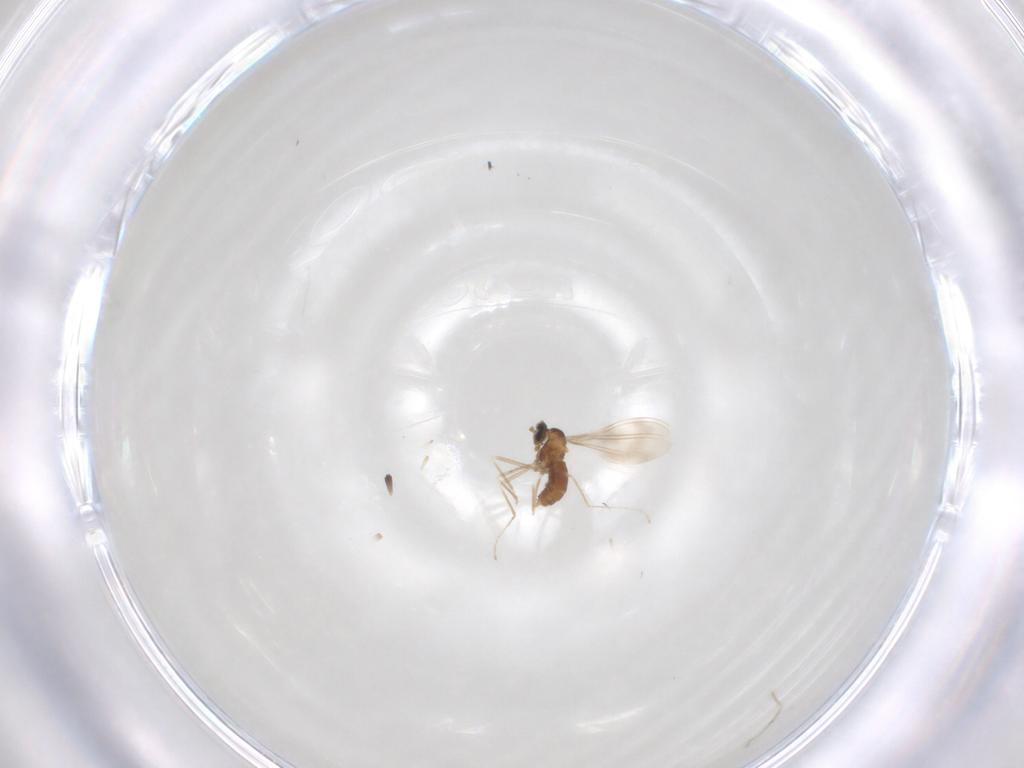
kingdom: Animalia
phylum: Arthropoda
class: Insecta
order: Diptera
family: Cecidomyiidae
